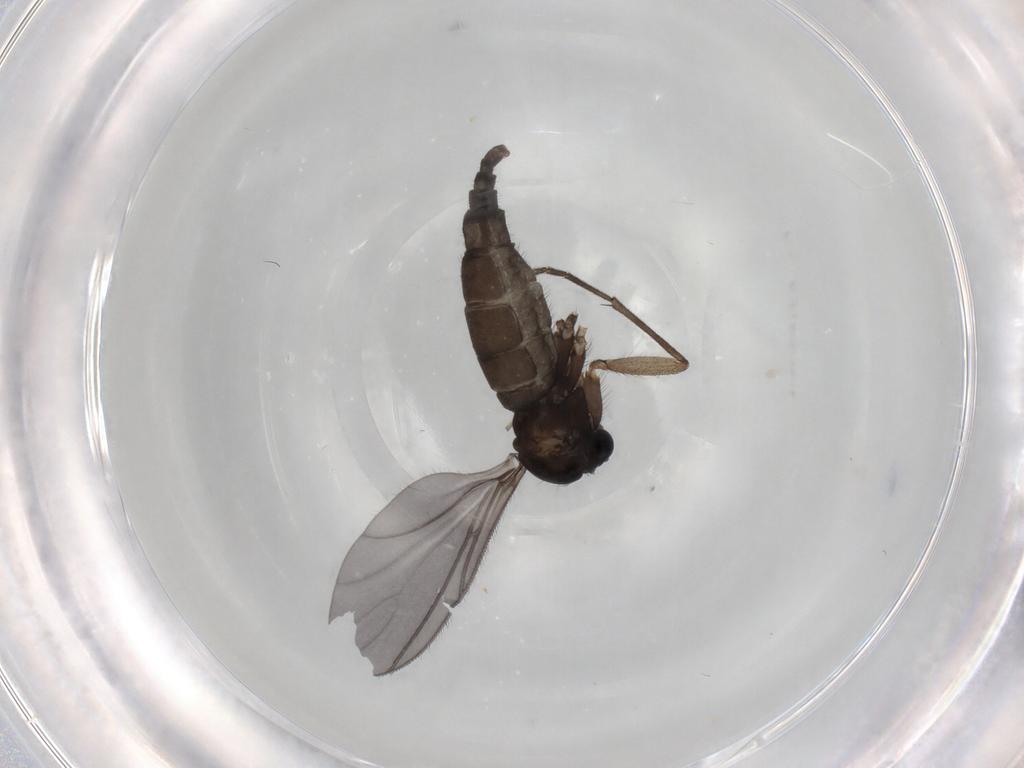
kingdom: Animalia
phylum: Arthropoda
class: Insecta
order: Diptera
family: Sciaridae
